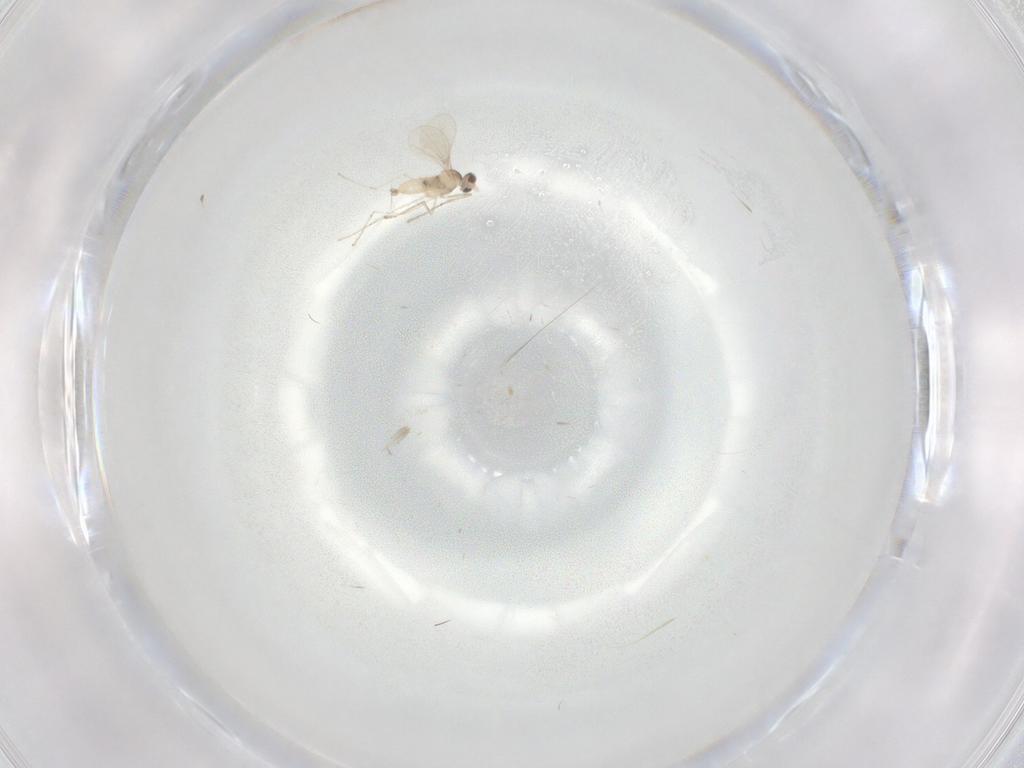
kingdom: Animalia
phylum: Arthropoda
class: Insecta
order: Diptera
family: Cecidomyiidae
